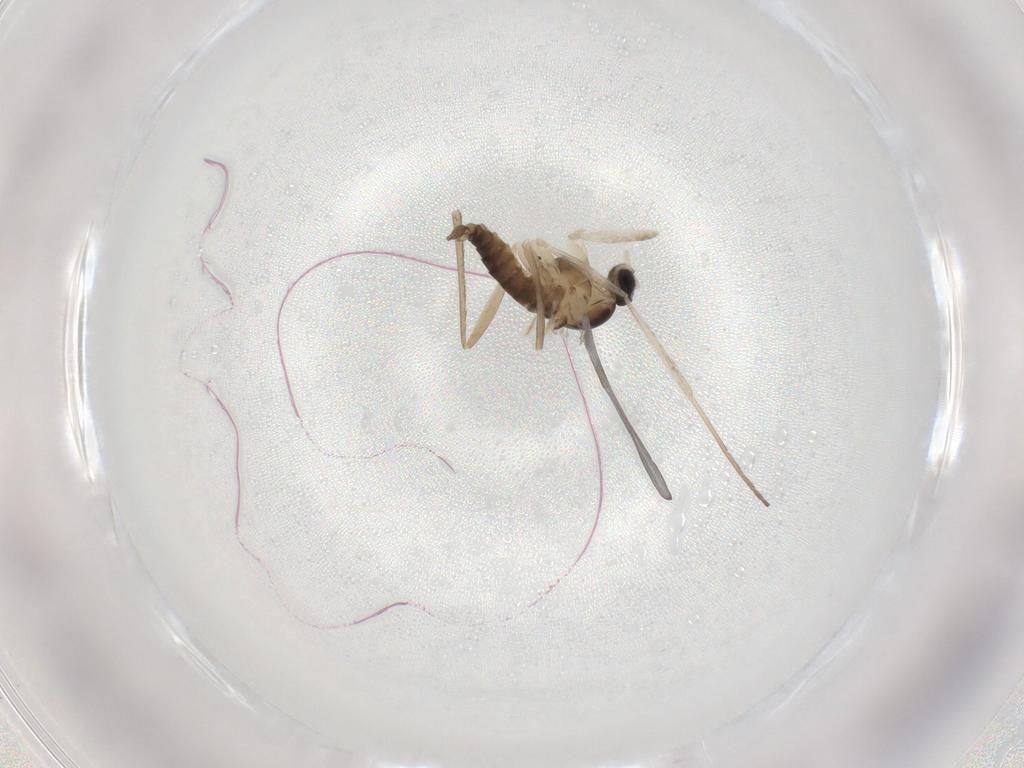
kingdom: Animalia
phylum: Arthropoda
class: Insecta
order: Diptera
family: Cecidomyiidae
